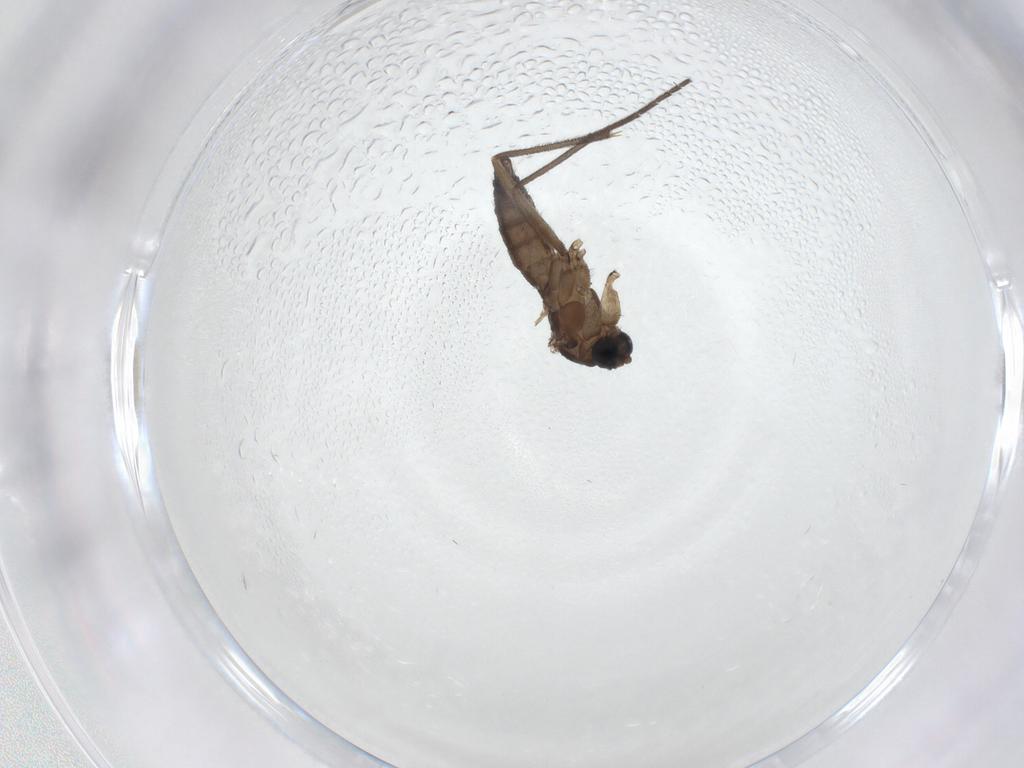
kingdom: Animalia
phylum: Arthropoda
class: Insecta
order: Diptera
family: Sciaridae
